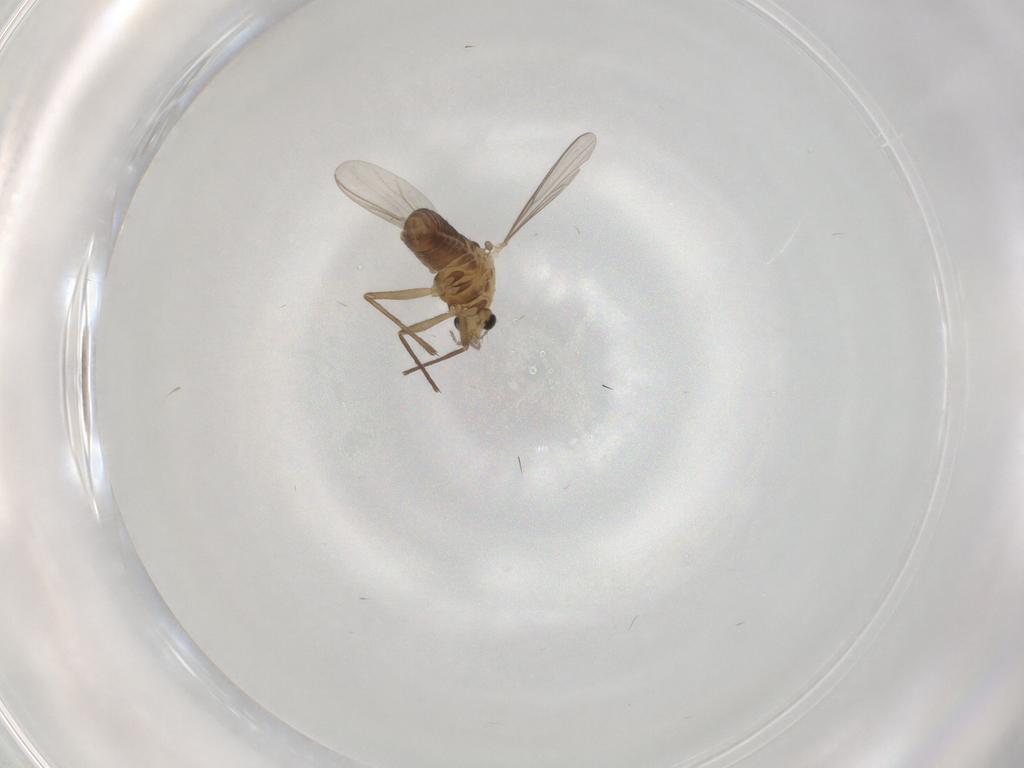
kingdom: Animalia
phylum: Arthropoda
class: Insecta
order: Diptera
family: Chironomidae
